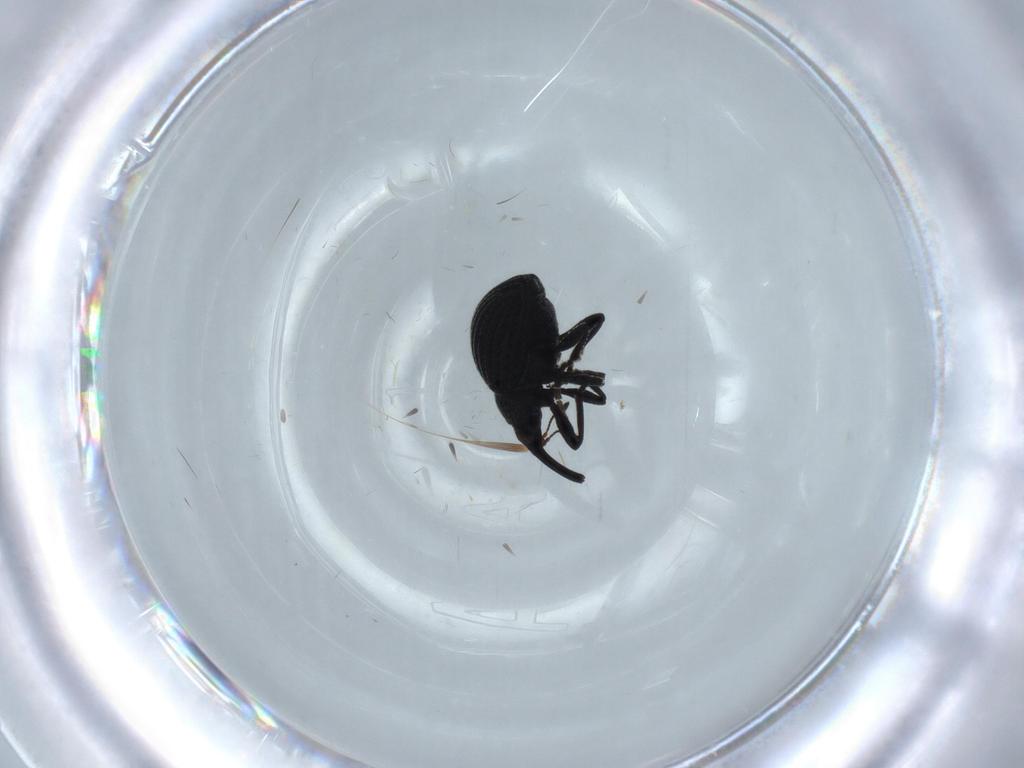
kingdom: Animalia
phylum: Arthropoda
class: Insecta
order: Coleoptera
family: Brentidae
